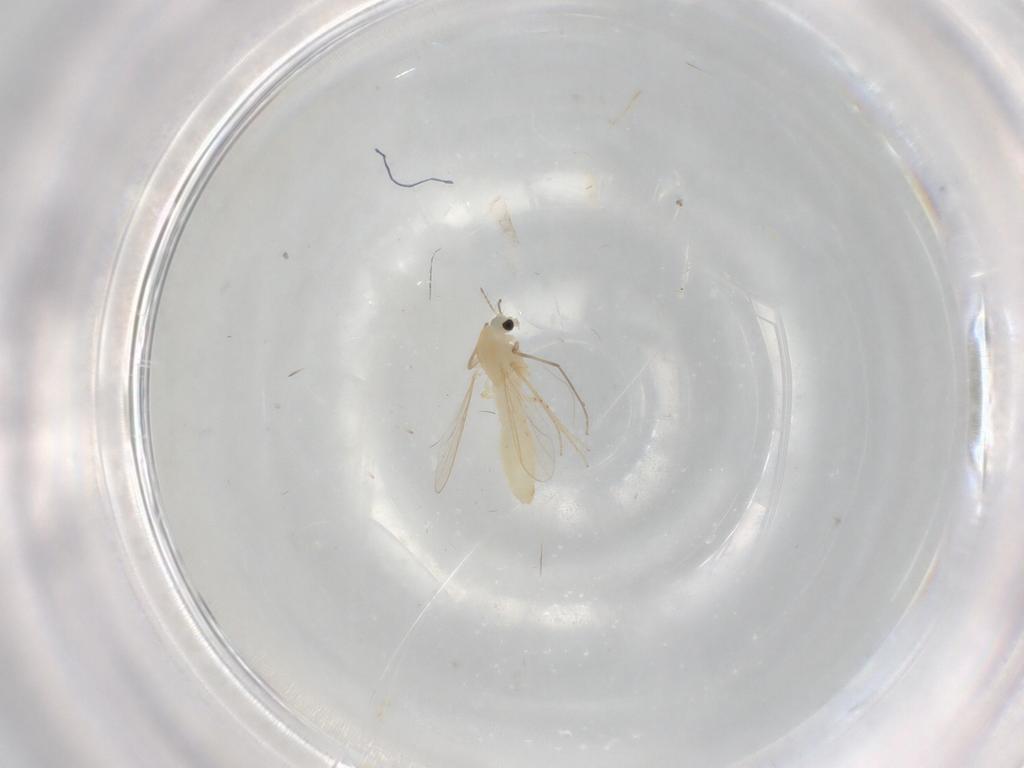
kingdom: Animalia
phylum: Arthropoda
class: Insecta
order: Diptera
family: Chironomidae
